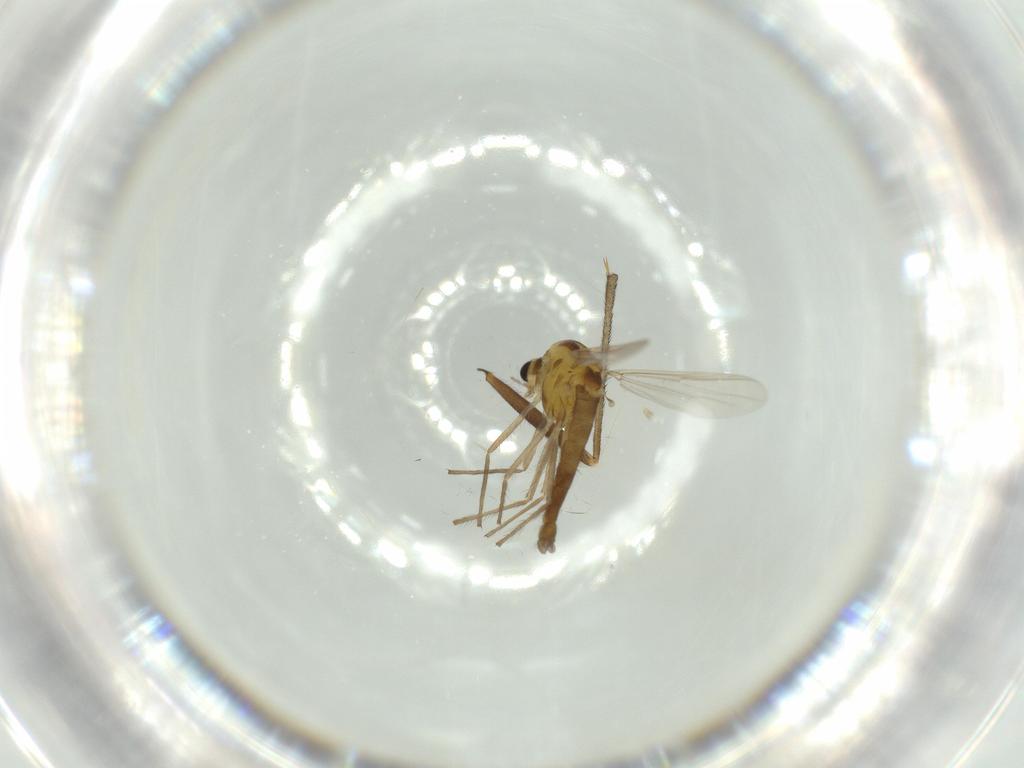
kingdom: Animalia
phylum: Arthropoda
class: Insecta
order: Diptera
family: Chironomidae
